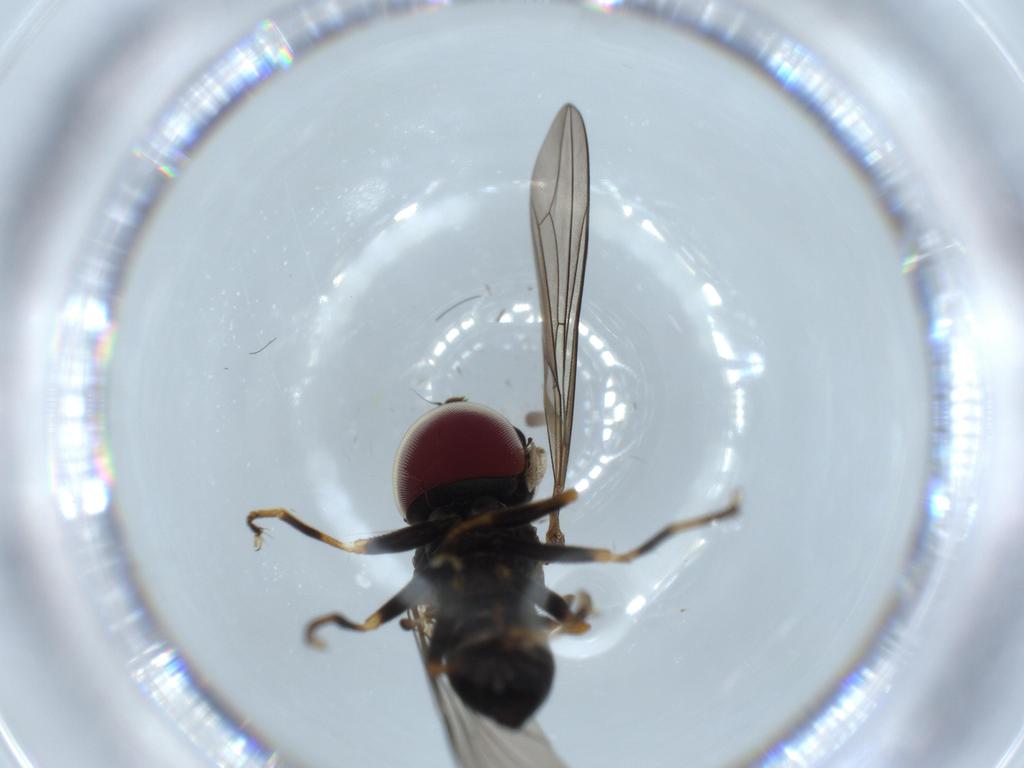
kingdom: Animalia
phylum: Arthropoda
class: Insecta
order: Diptera
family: Pipunculidae
